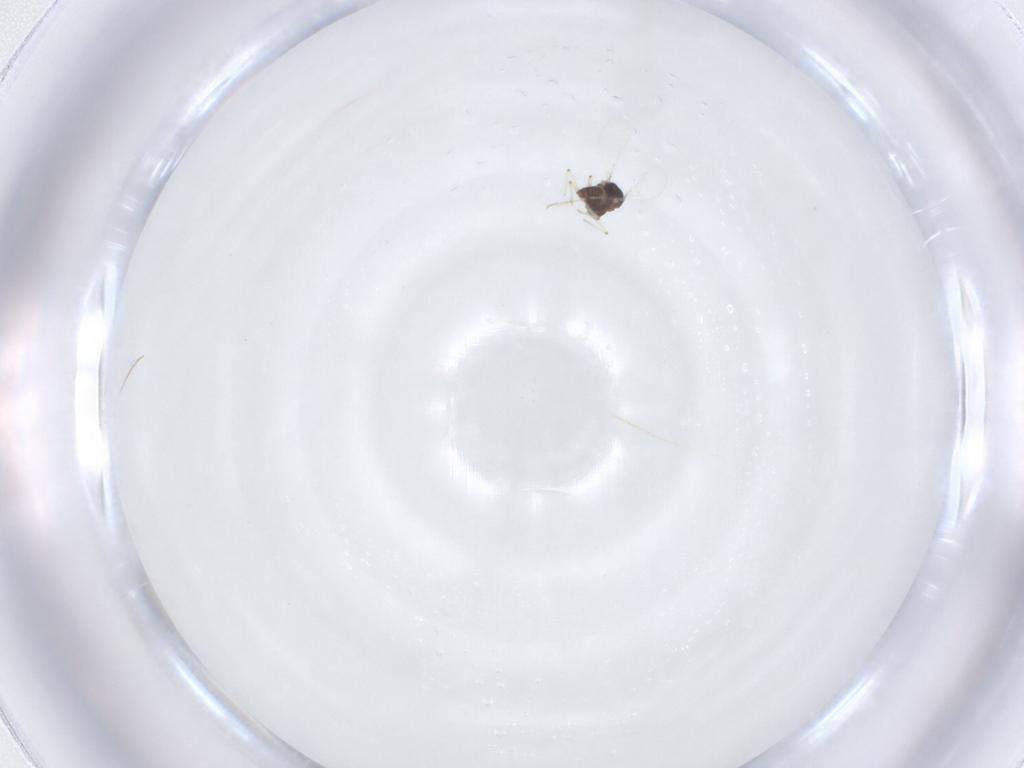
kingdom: Animalia
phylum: Arthropoda
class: Insecta
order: Diptera
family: Chironomidae
